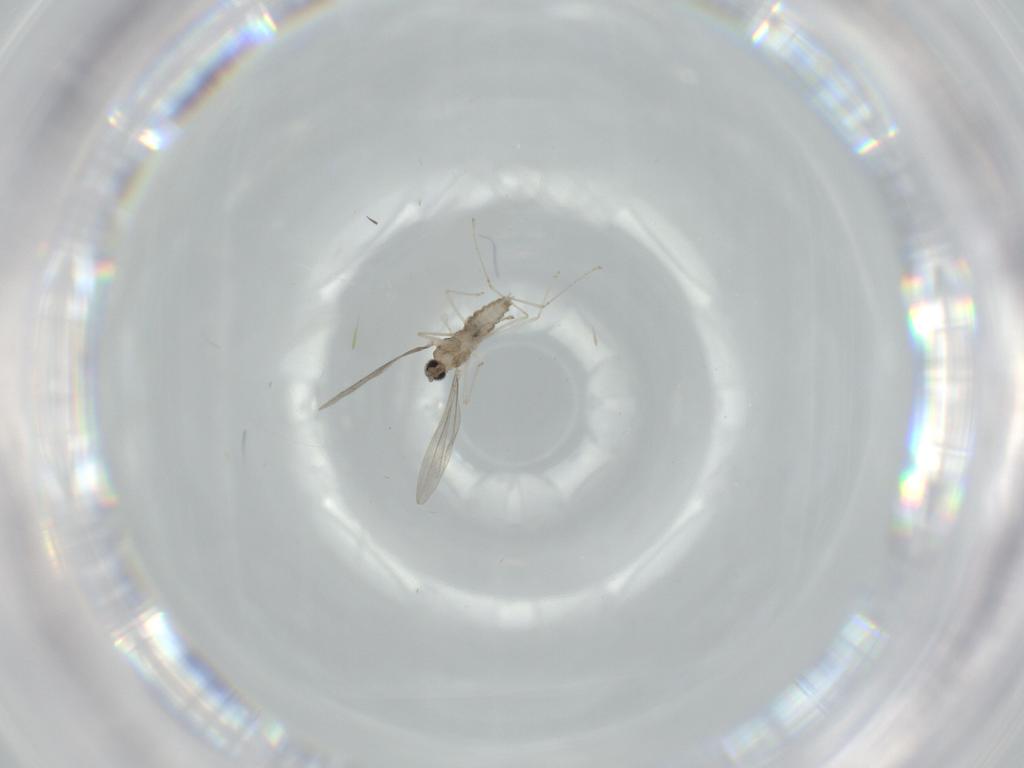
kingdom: Animalia
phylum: Arthropoda
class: Insecta
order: Diptera
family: Cecidomyiidae
